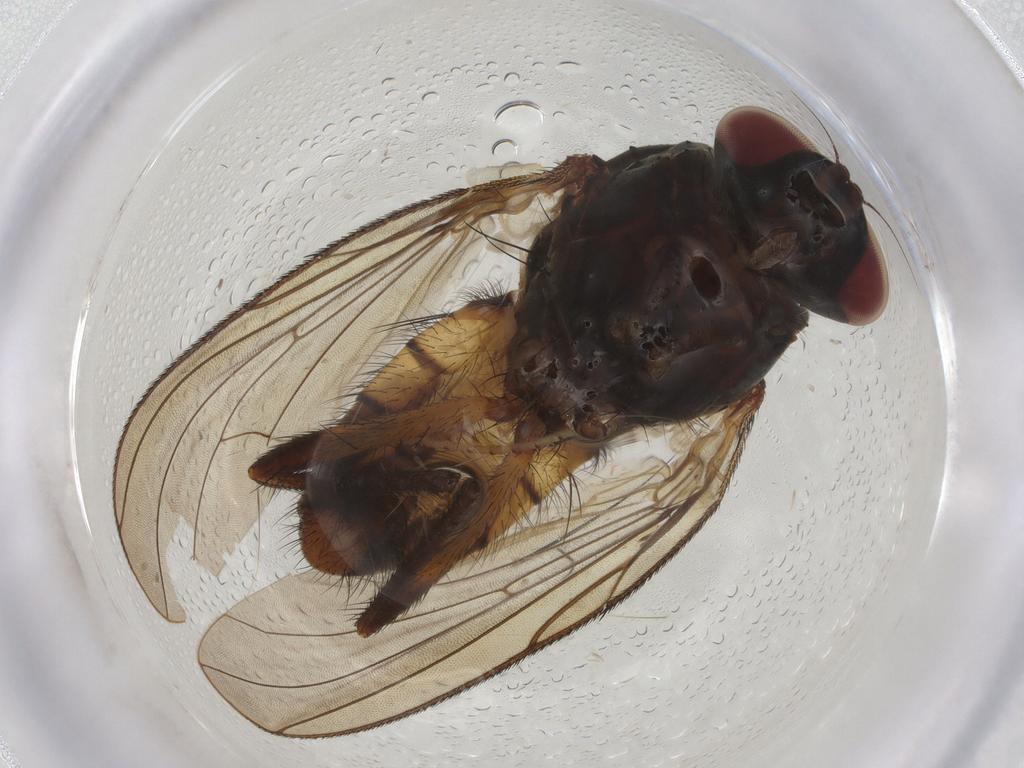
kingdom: Animalia
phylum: Arthropoda
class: Insecta
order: Diptera
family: Anthomyiidae
